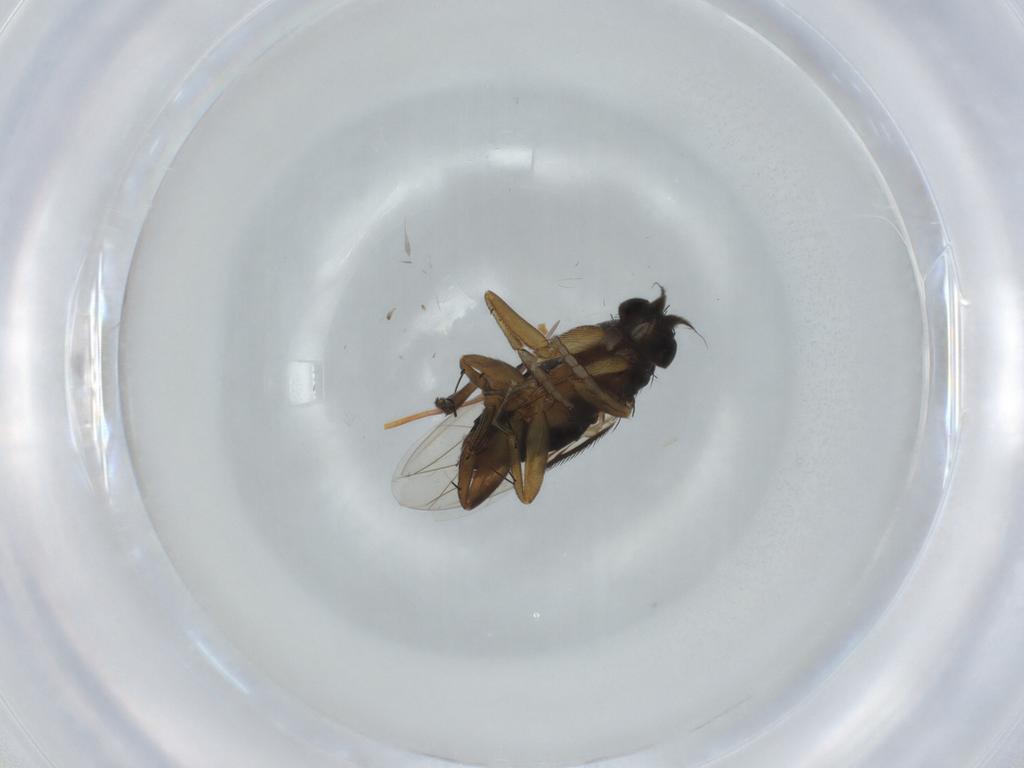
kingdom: Animalia
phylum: Arthropoda
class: Insecta
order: Diptera
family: Phoridae
